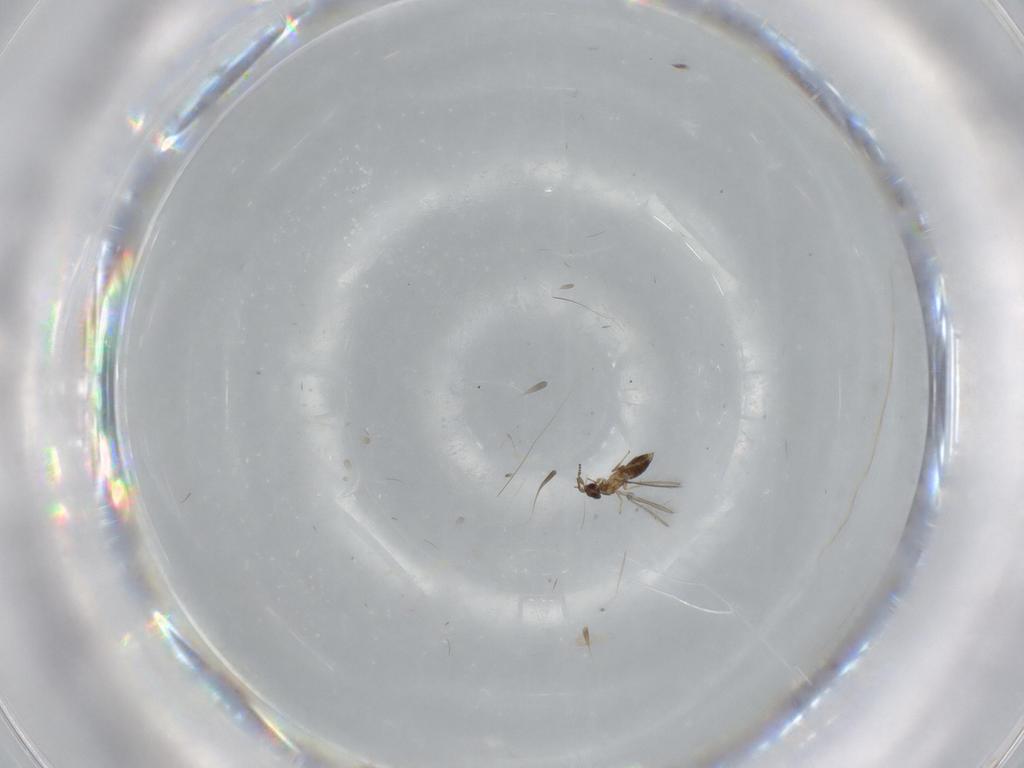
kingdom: Animalia
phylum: Arthropoda
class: Insecta
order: Hymenoptera
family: Mymaridae
